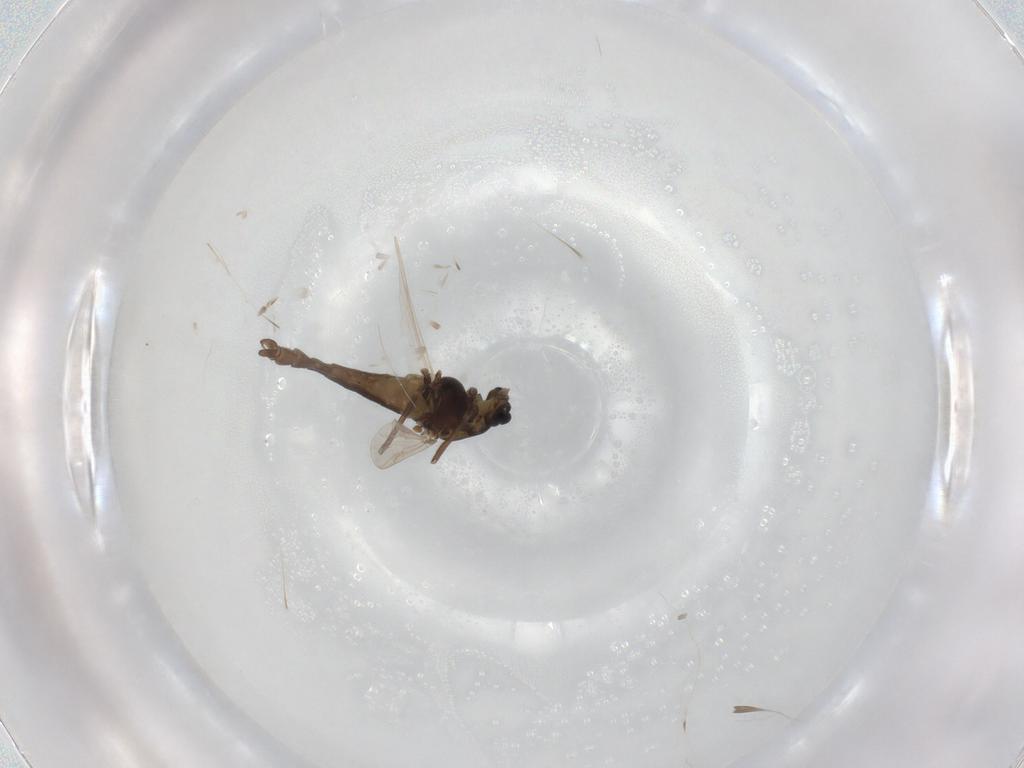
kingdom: Animalia
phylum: Arthropoda
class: Insecta
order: Diptera
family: Chironomidae
